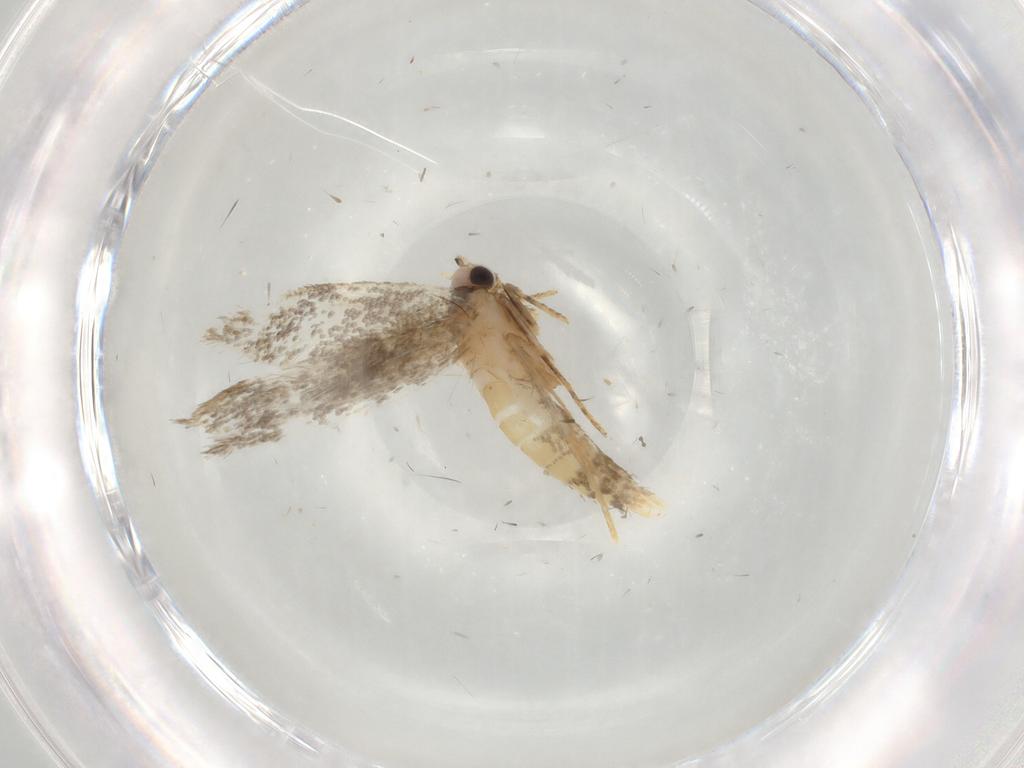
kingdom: Animalia
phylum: Arthropoda
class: Insecta
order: Lepidoptera
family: Tineidae
